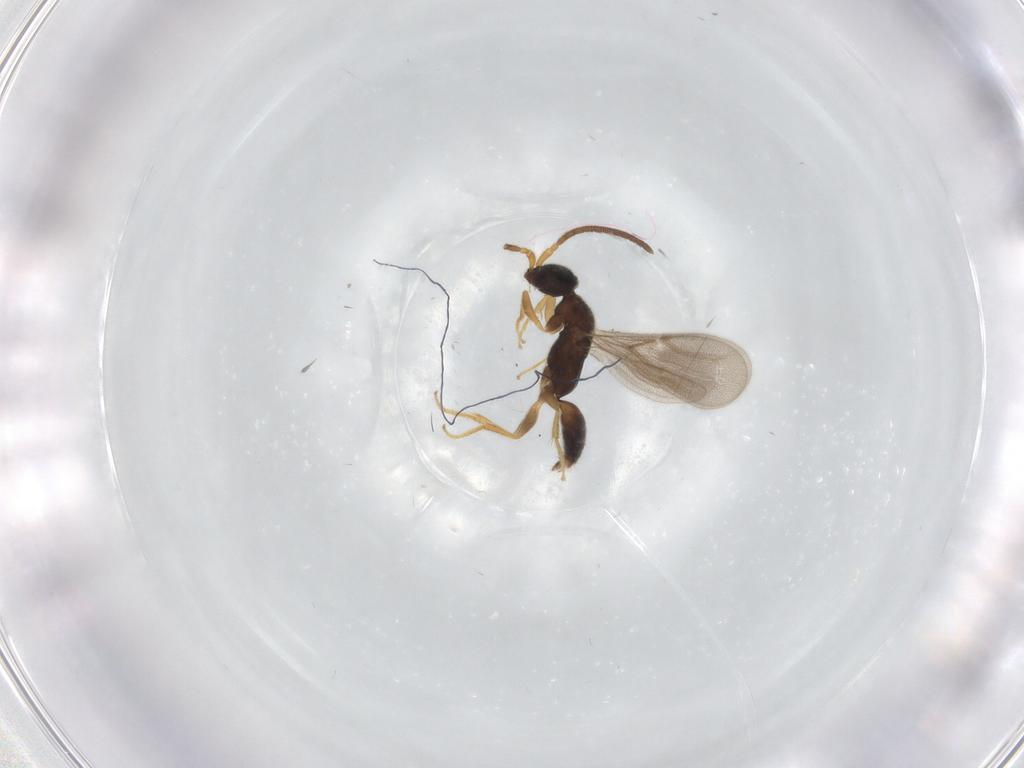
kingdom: Animalia
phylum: Arthropoda
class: Insecta
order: Hymenoptera
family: Bethylidae
